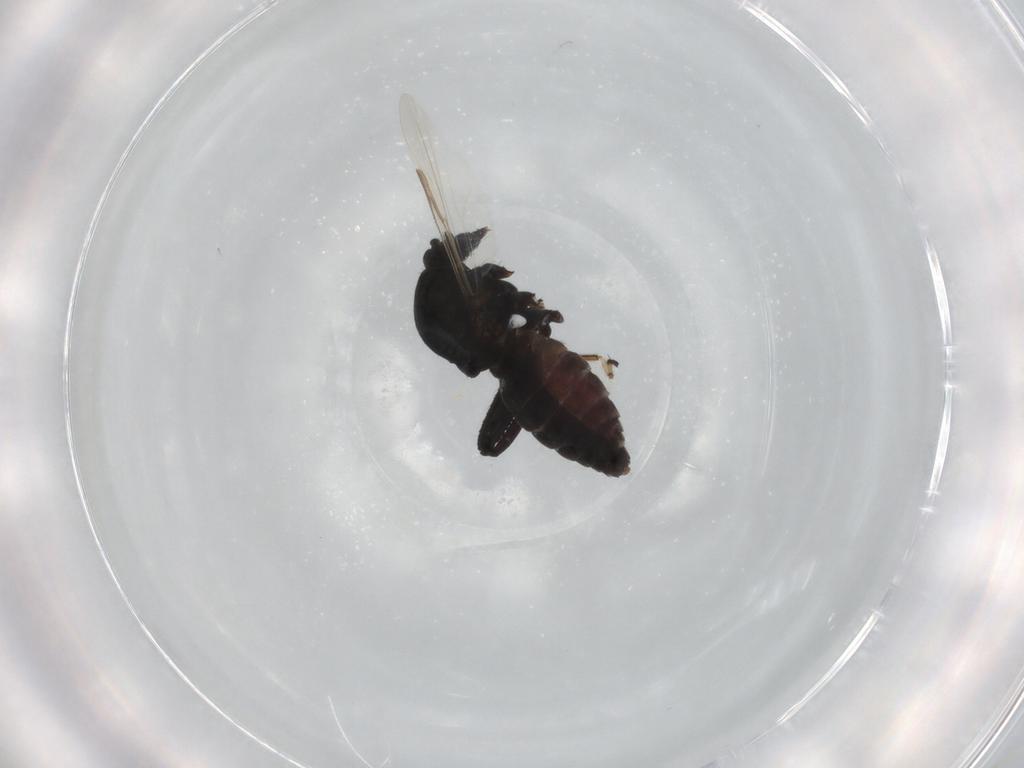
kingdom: Animalia
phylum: Arthropoda
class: Insecta
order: Diptera
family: Ceratopogonidae
